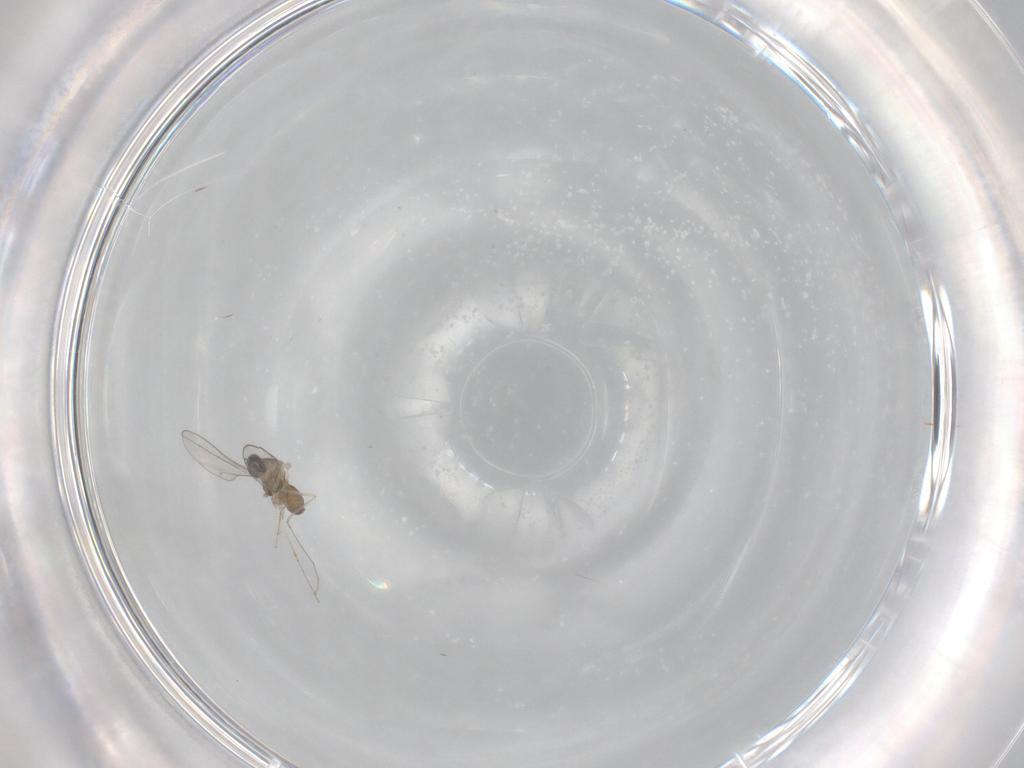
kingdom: Animalia
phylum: Arthropoda
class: Insecta
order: Diptera
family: Cecidomyiidae
